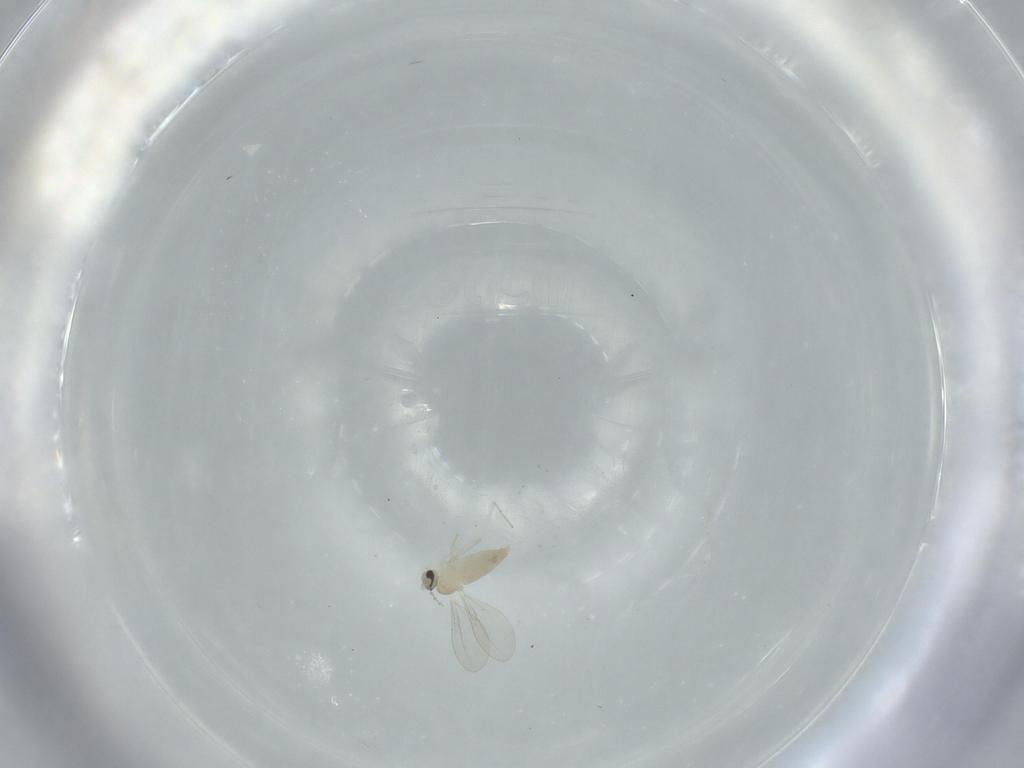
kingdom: Animalia
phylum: Arthropoda
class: Insecta
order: Diptera
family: Cecidomyiidae
